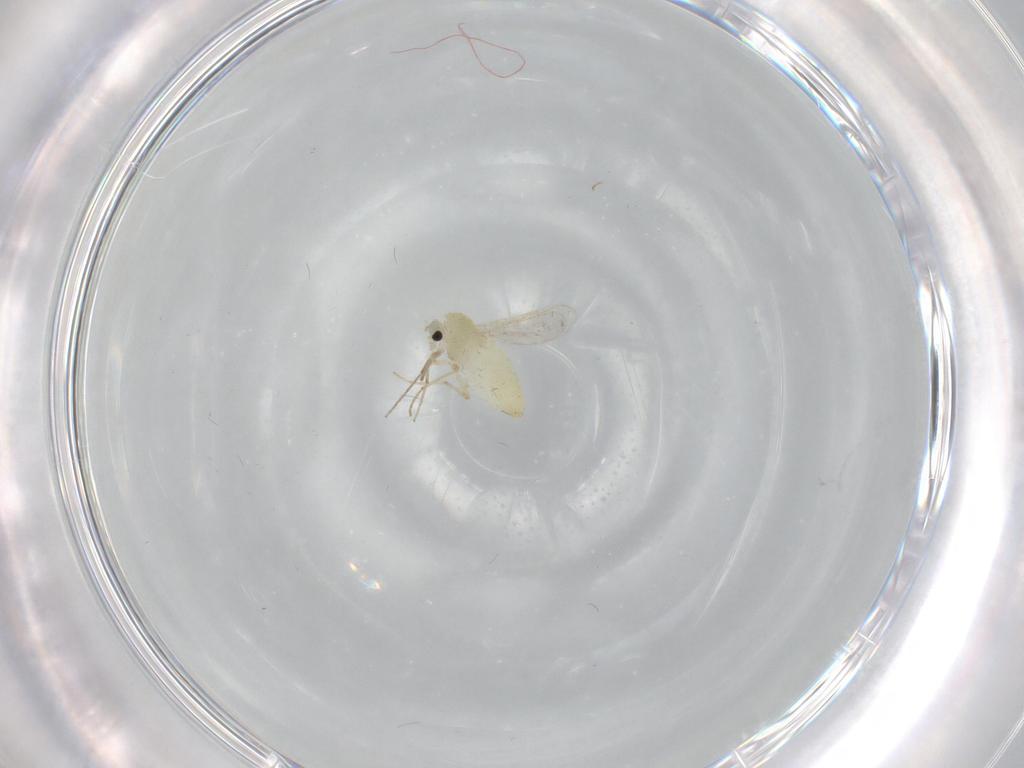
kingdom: Animalia
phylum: Arthropoda
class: Insecta
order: Diptera
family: Chironomidae
